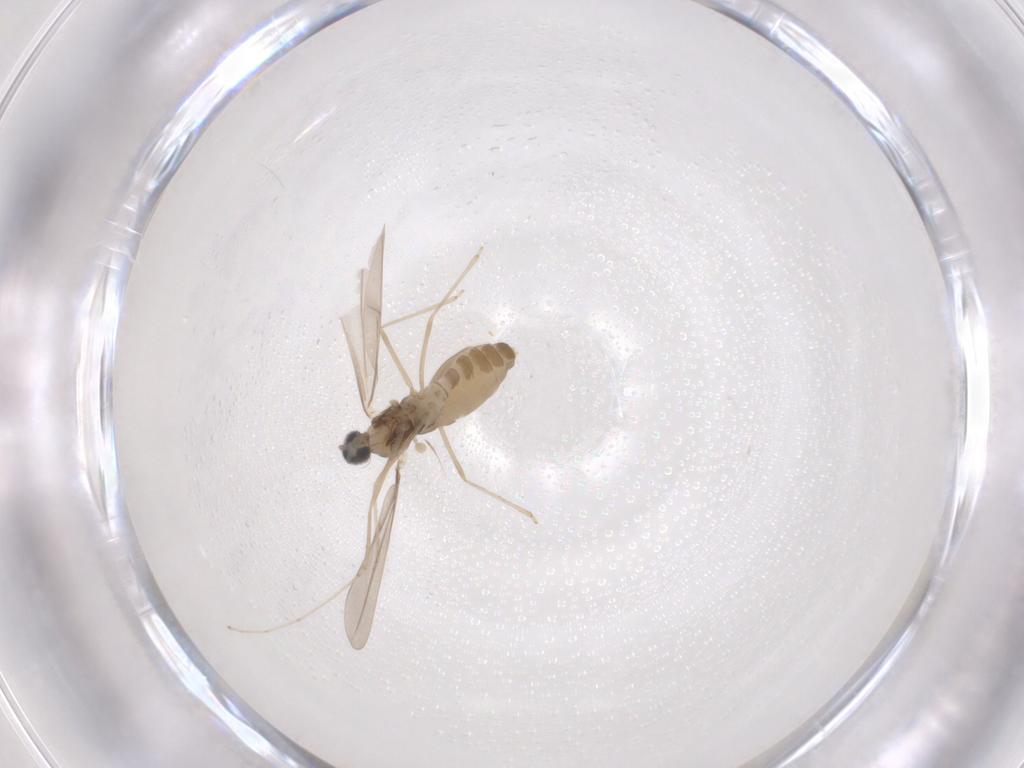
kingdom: Animalia
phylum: Arthropoda
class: Insecta
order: Diptera
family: Cecidomyiidae
